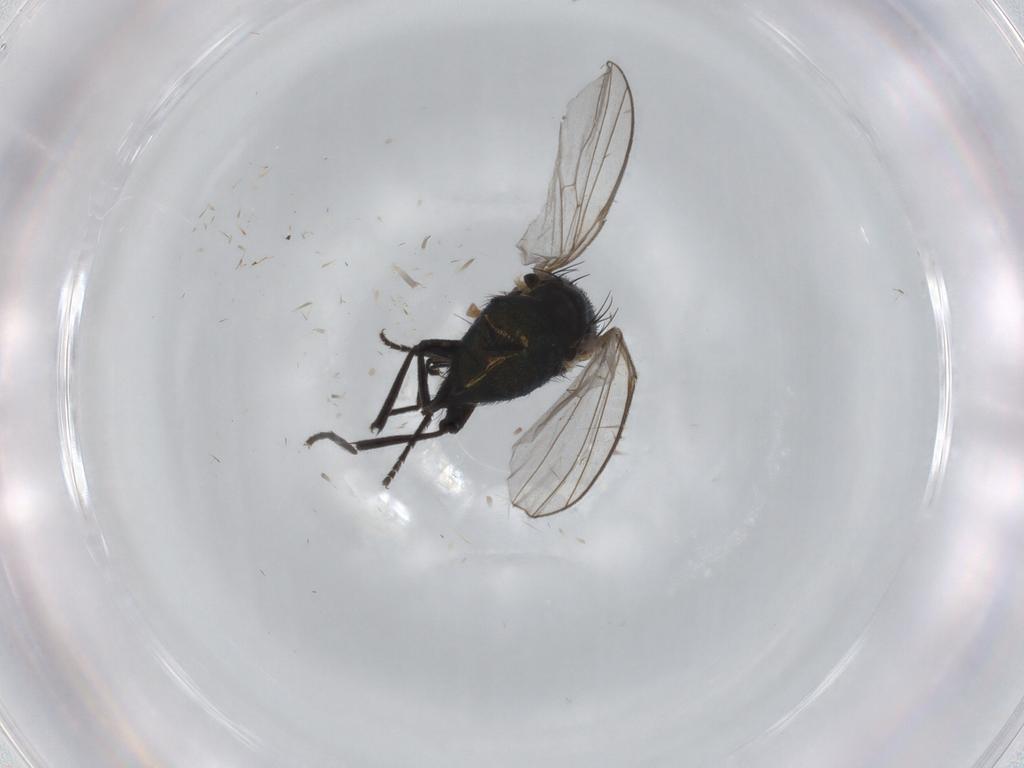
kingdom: Animalia
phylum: Arthropoda
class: Insecta
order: Diptera
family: Agromyzidae
